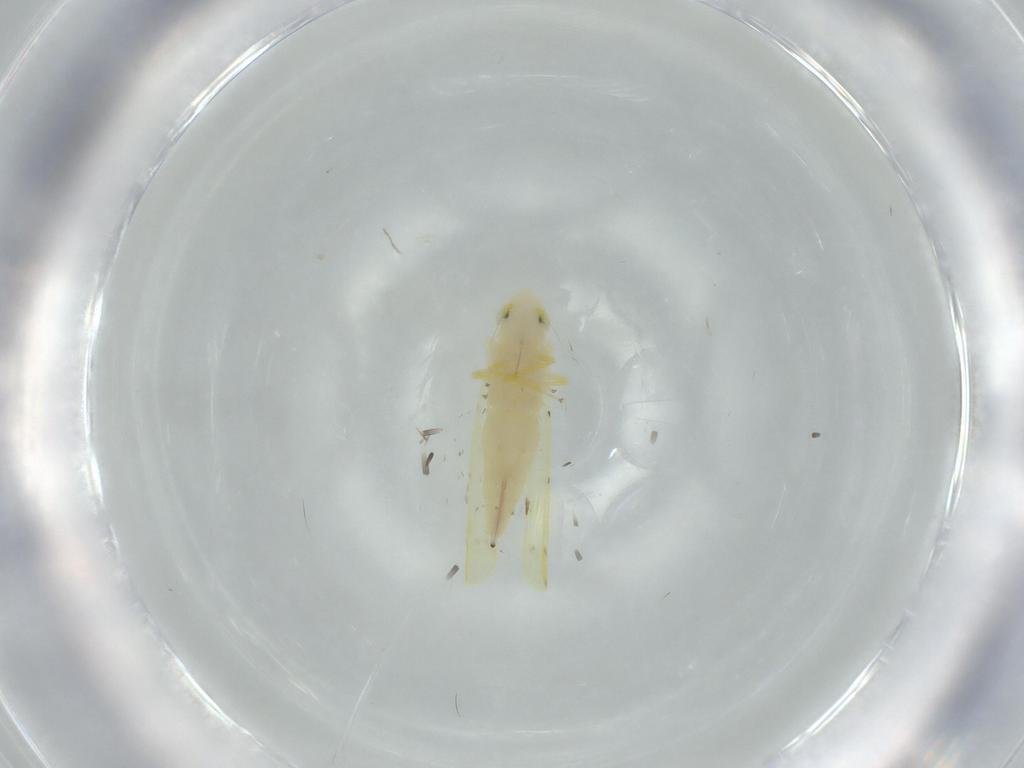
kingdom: Animalia
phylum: Arthropoda
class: Insecta
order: Hemiptera
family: Cicadellidae
